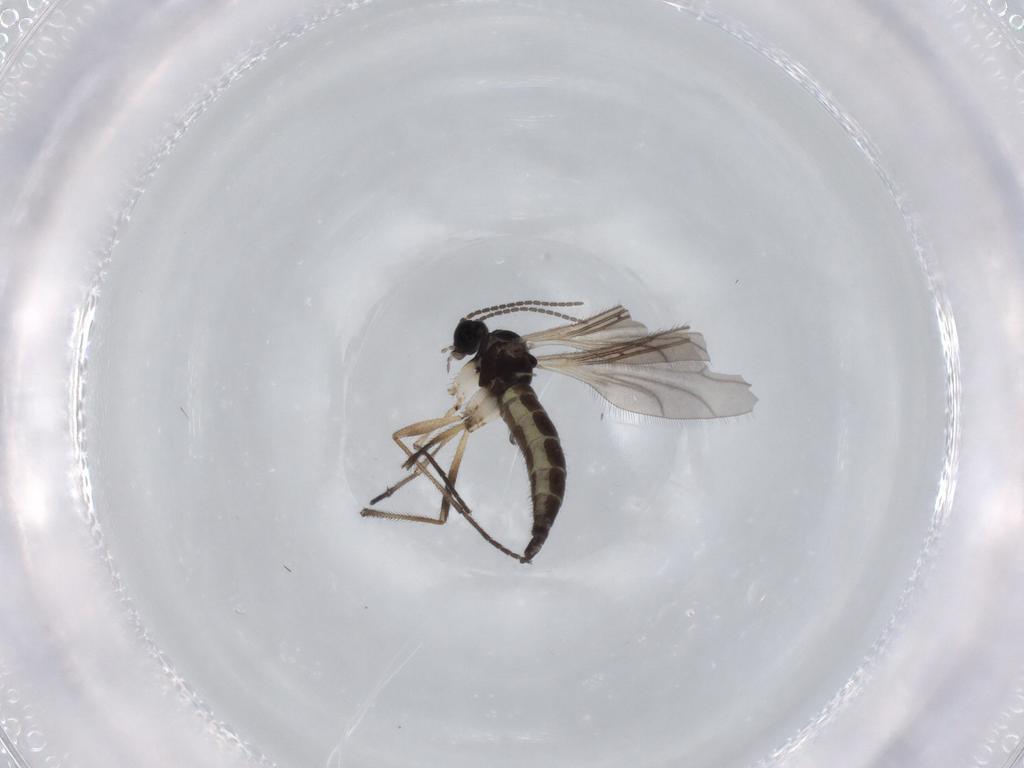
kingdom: Animalia
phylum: Arthropoda
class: Insecta
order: Diptera
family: Sciaridae
